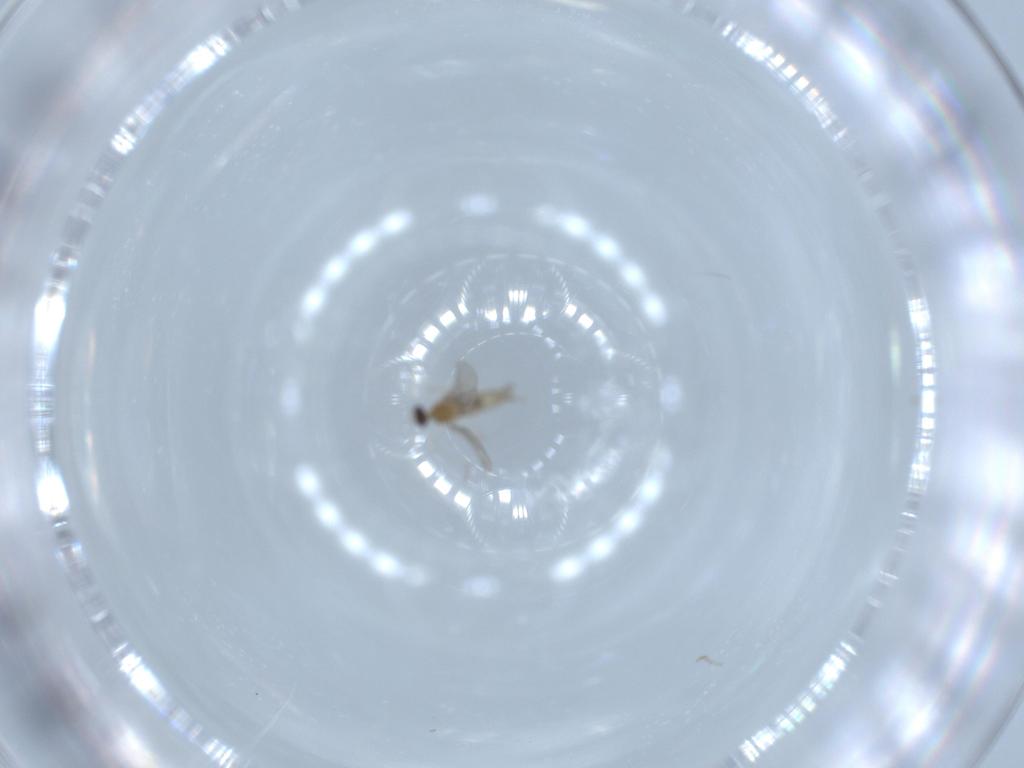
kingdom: Animalia
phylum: Arthropoda
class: Insecta
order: Diptera
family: Cecidomyiidae
